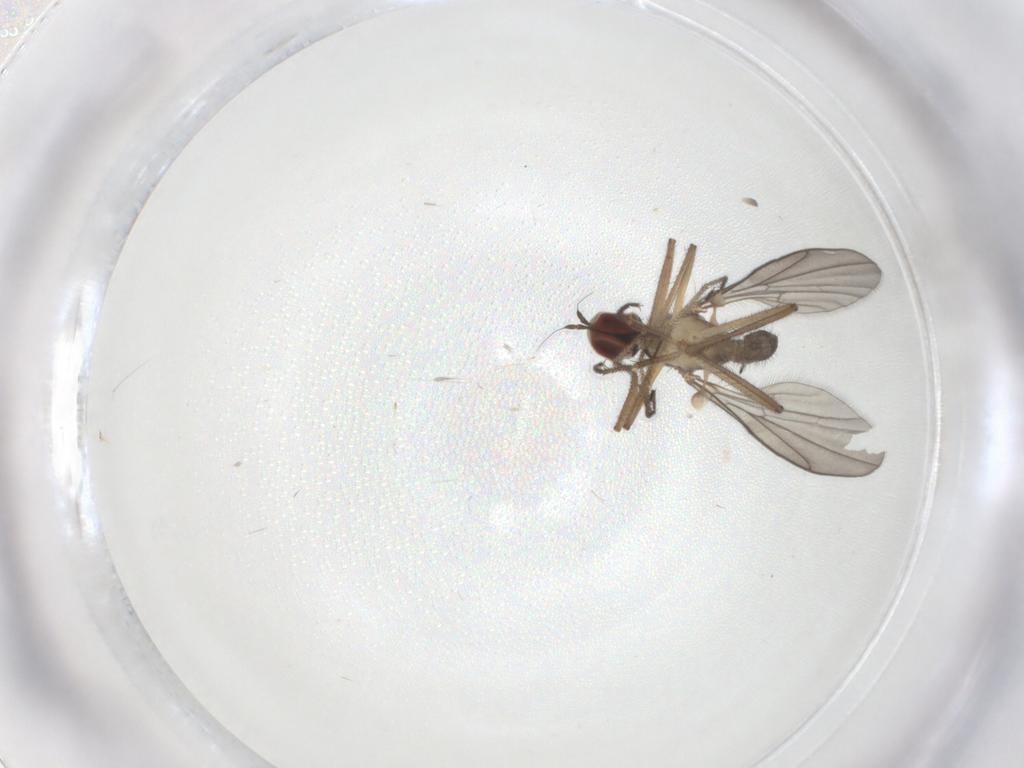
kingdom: Animalia
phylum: Arthropoda
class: Insecta
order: Diptera
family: Hybotidae
